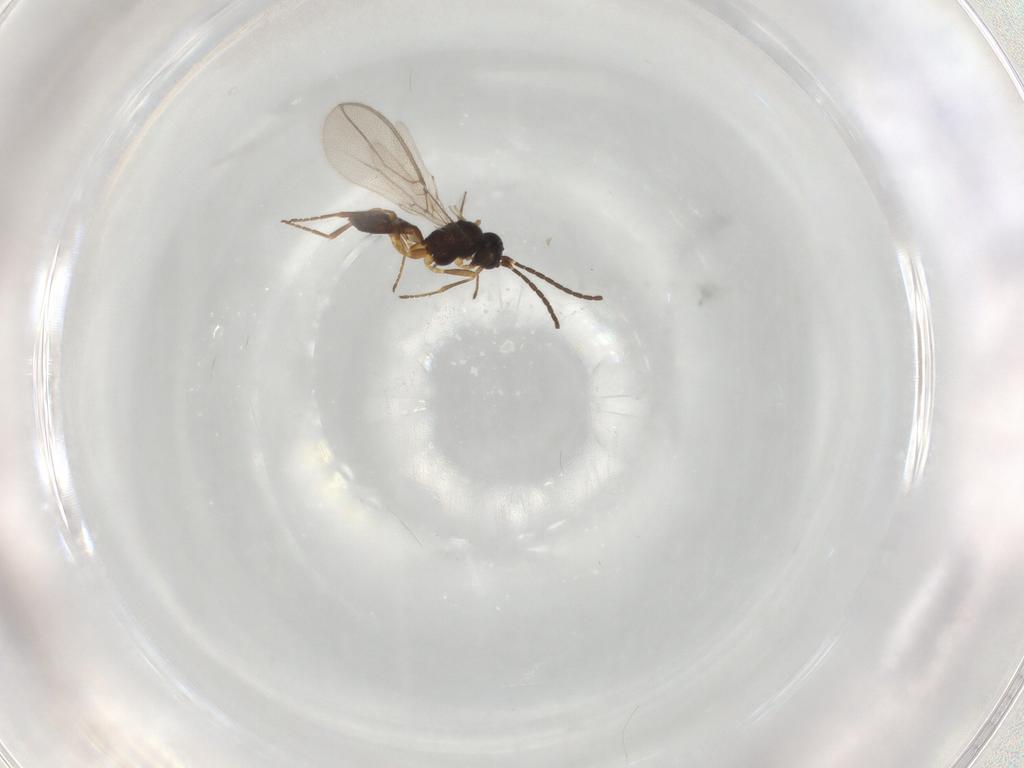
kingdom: Animalia
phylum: Arthropoda
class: Insecta
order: Hymenoptera
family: Braconidae
